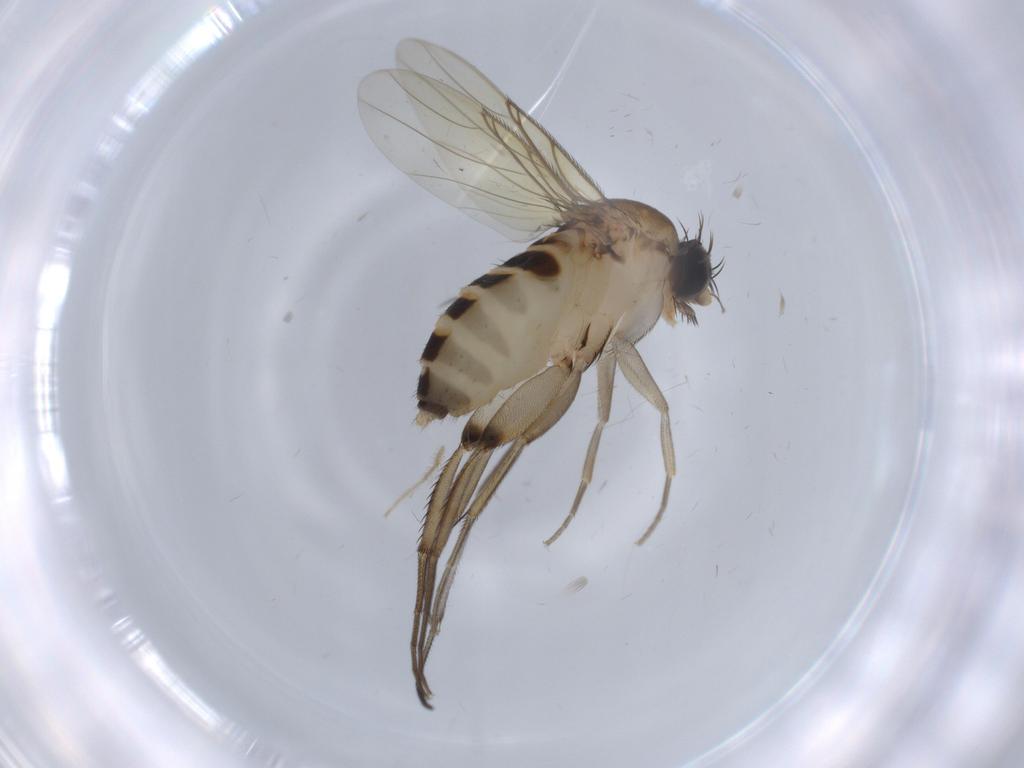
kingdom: Animalia
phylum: Arthropoda
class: Insecta
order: Diptera
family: Phoridae
